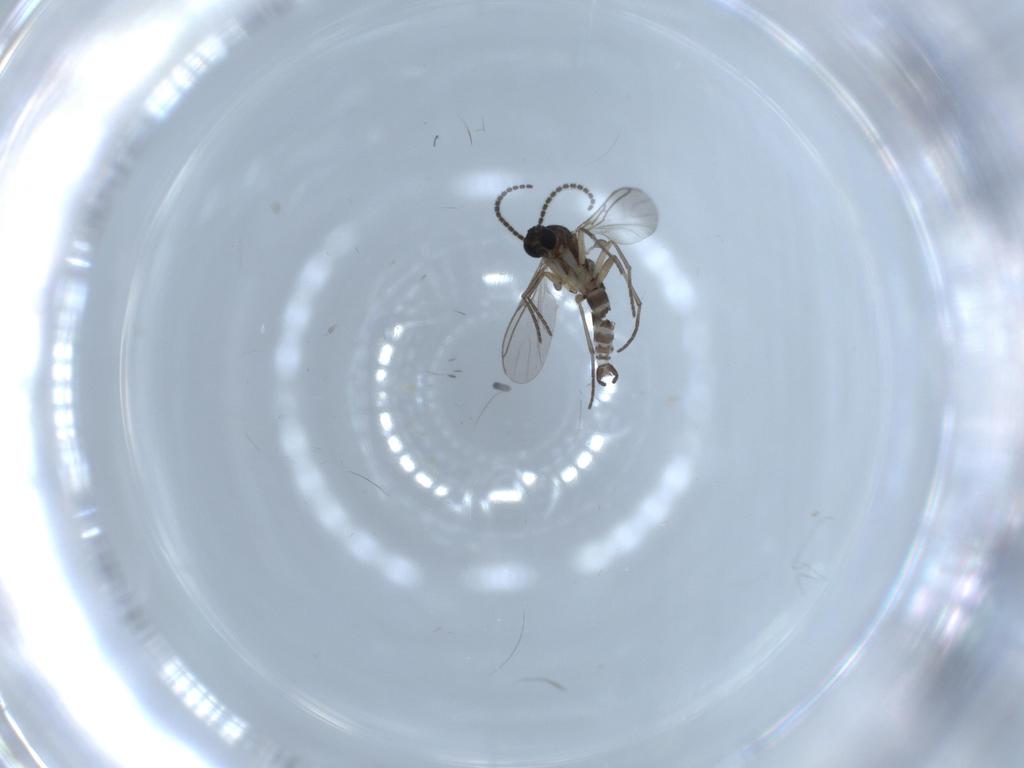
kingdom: Animalia
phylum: Arthropoda
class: Insecta
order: Diptera
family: Sciaridae
